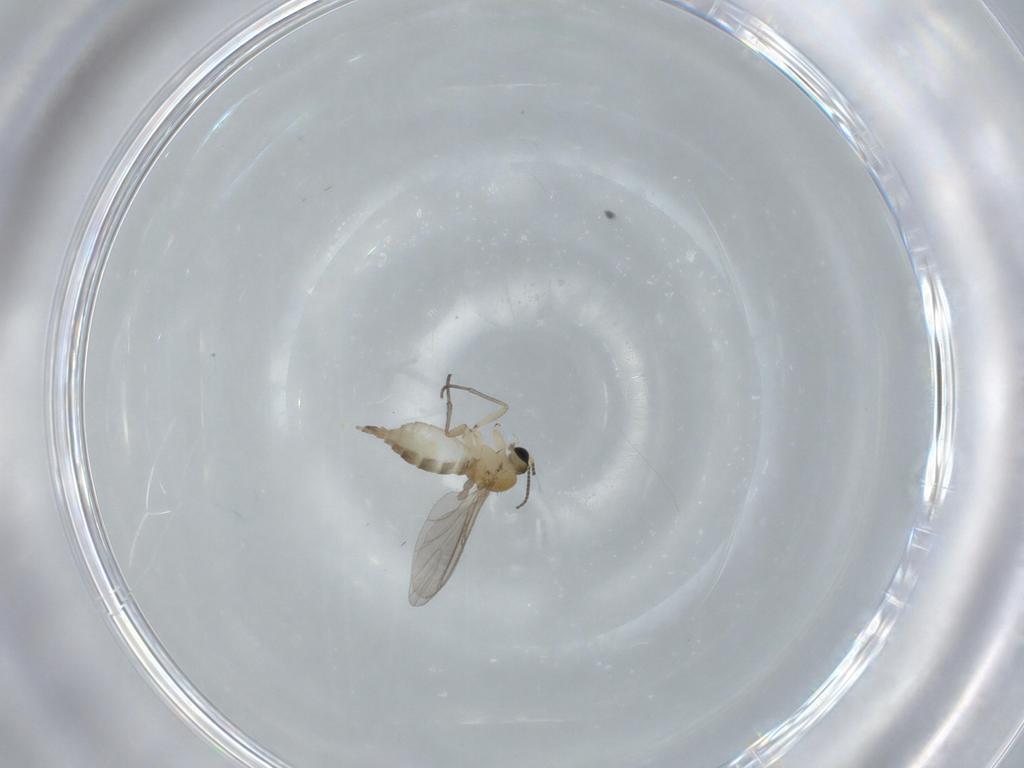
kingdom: Animalia
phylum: Arthropoda
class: Insecta
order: Diptera
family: Sciaridae
